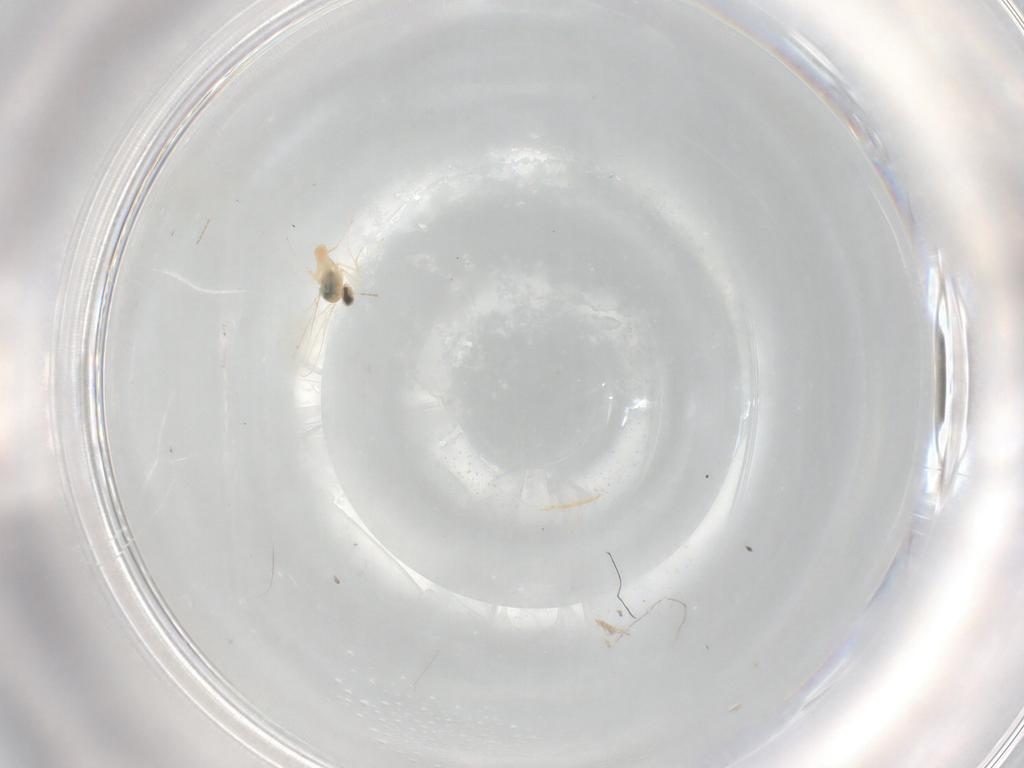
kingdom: Animalia
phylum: Arthropoda
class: Insecta
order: Diptera
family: Cecidomyiidae
